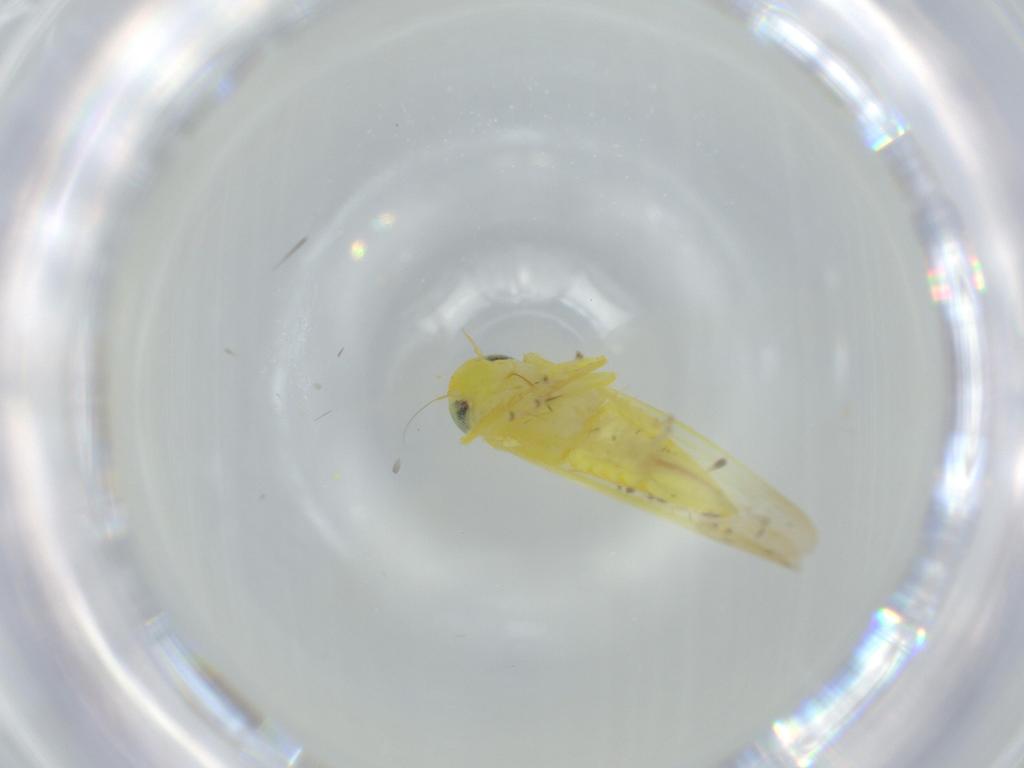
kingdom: Animalia
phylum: Arthropoda
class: Insecta
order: Hemiptera
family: Cicadellidae
